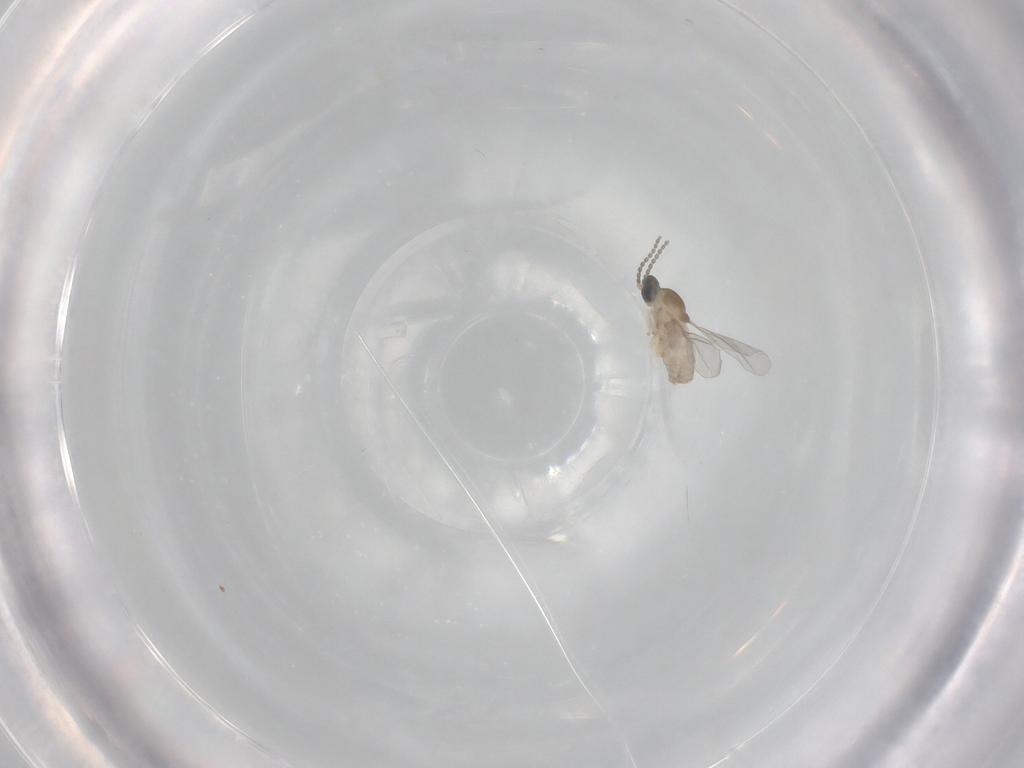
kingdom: Animalia
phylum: Arthropoda
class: Insecta
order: Diptera
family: Cecidomyiidae
